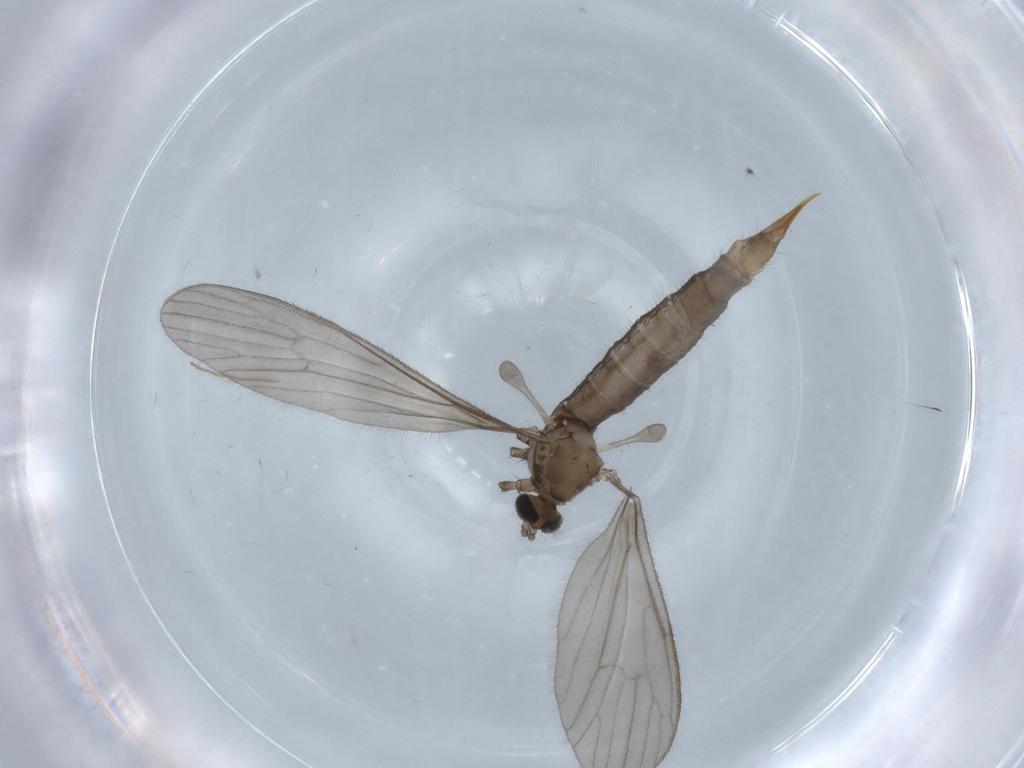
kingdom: Animalia
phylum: Arthropoda
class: Insecta
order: Diptera
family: Limoniidae
